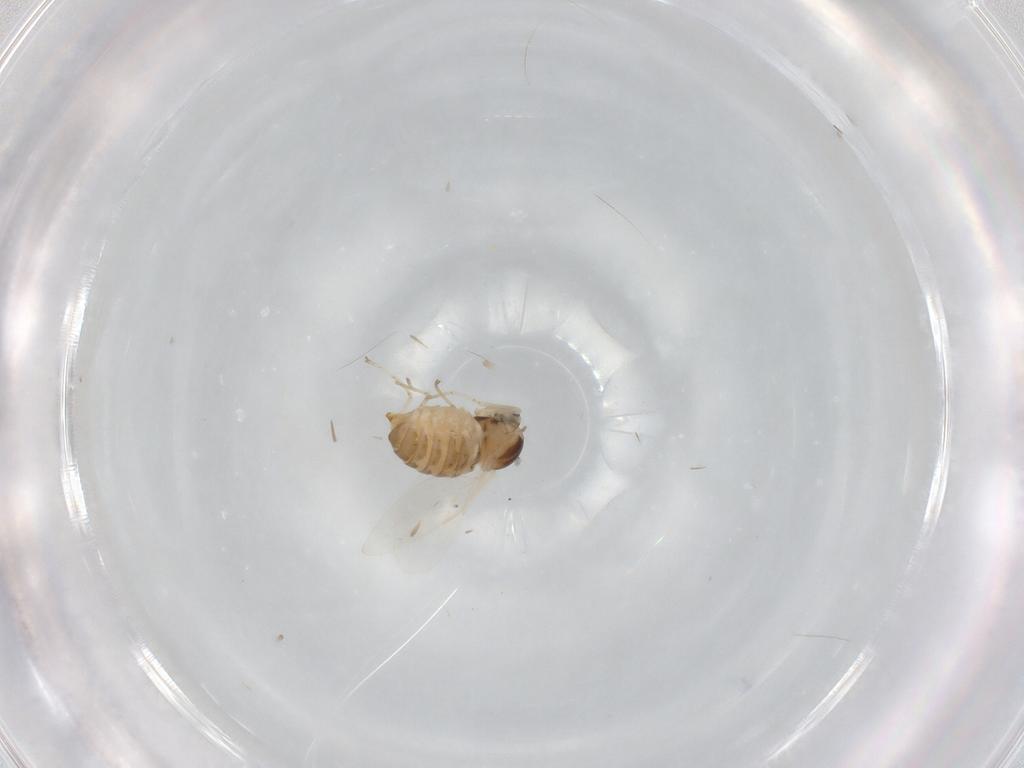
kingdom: Animalia
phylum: Arthropoda
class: Insecta
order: Diptera
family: Cecidomyiidae
